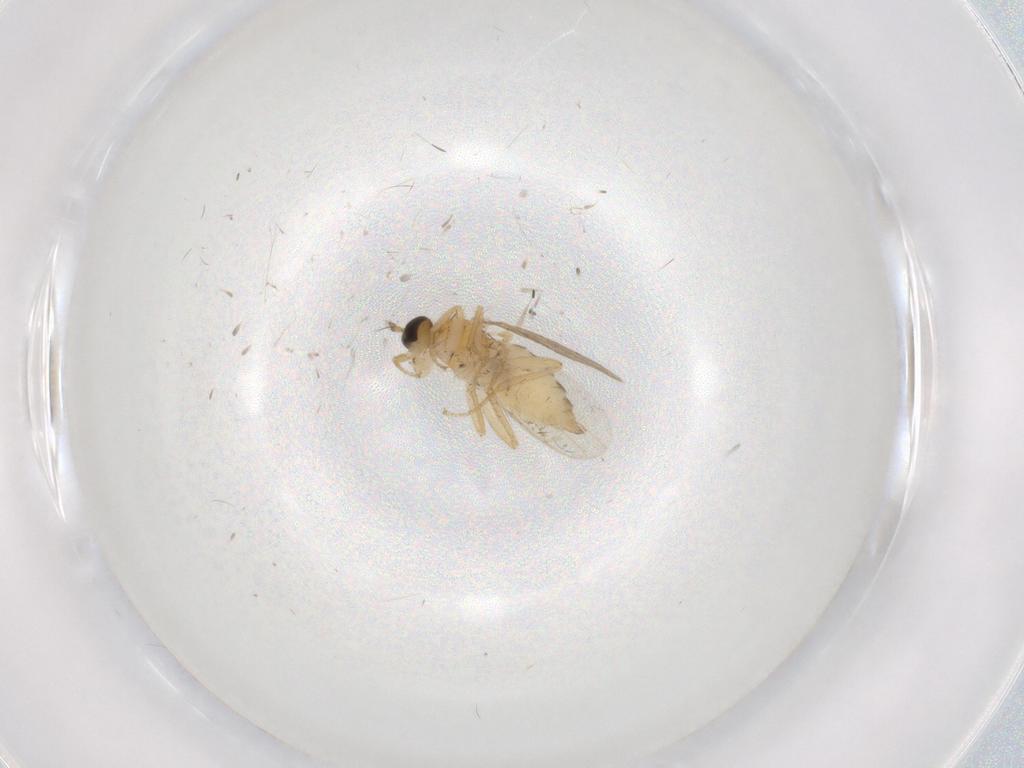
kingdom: Animalia
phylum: Arthropoda
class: Insecta
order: Diptera
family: Hybotidae
